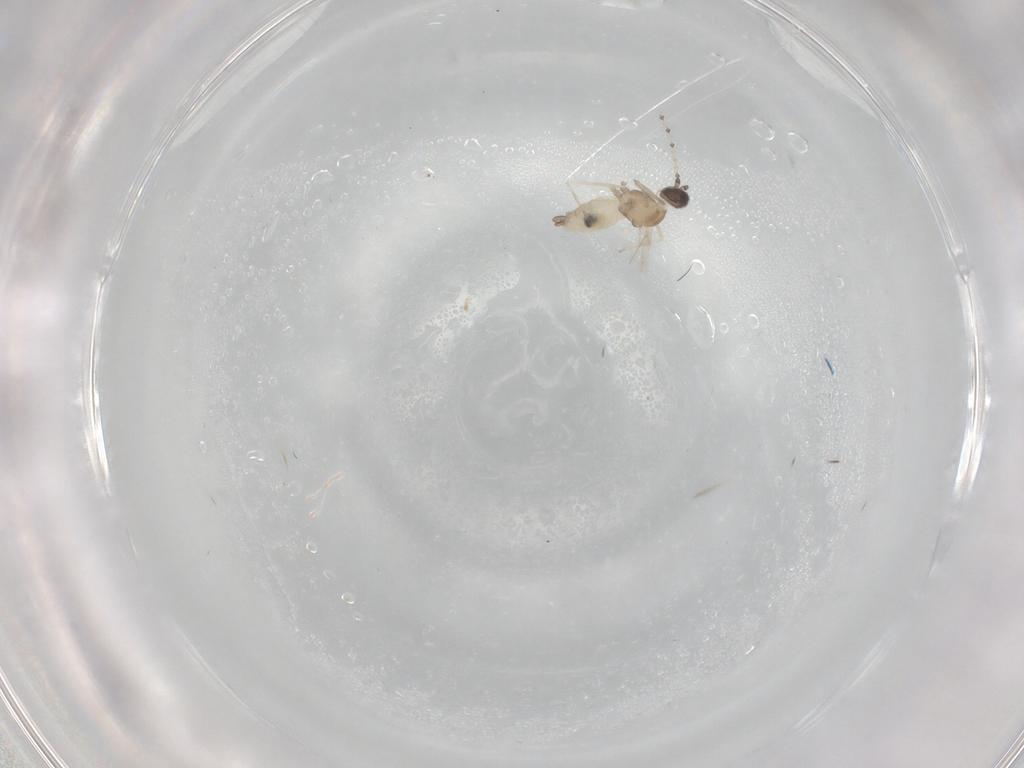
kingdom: Animalia
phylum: Arthropoda
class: Insecta
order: Diptera
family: Cecidomyiidae
